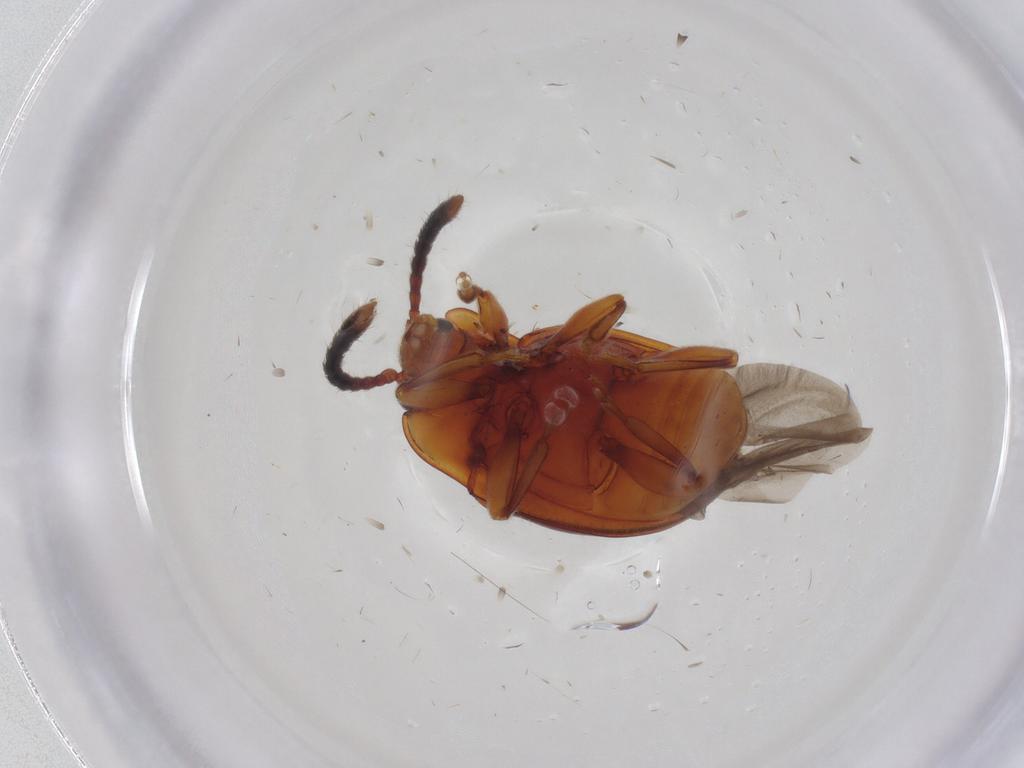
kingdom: Animalia
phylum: Arthropoda
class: Insecta
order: Coleoptera
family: Endomychidae
